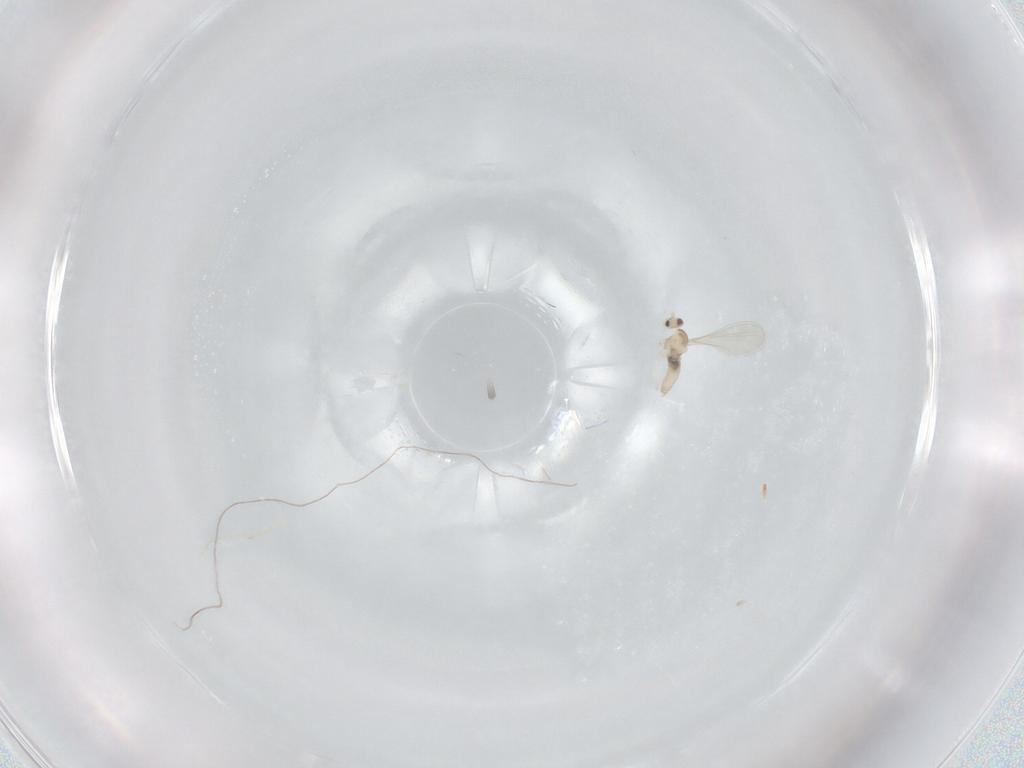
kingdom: Animalia
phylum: Arthropoda
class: Insecta
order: Diptera
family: Cecidomyiidae
